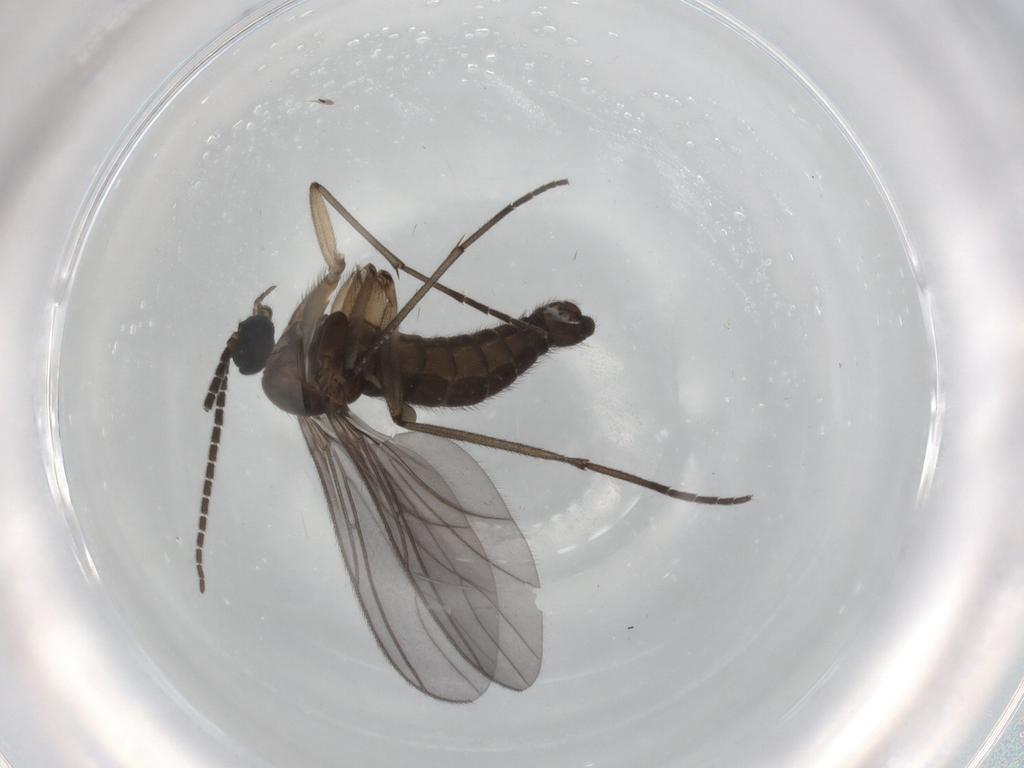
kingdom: Animalia
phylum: Arthropoda
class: Insecta
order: Diptera
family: Sciaridae
